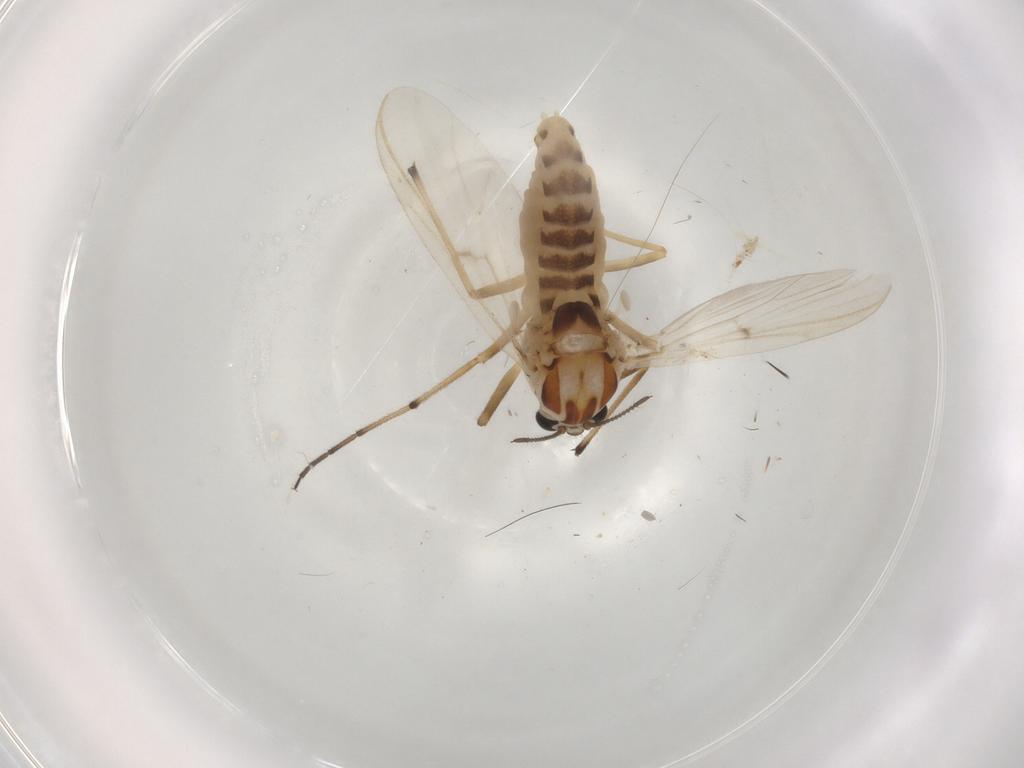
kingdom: Animalia
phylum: Arthropoda
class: Insecta
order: Diptera
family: Chironomidae
